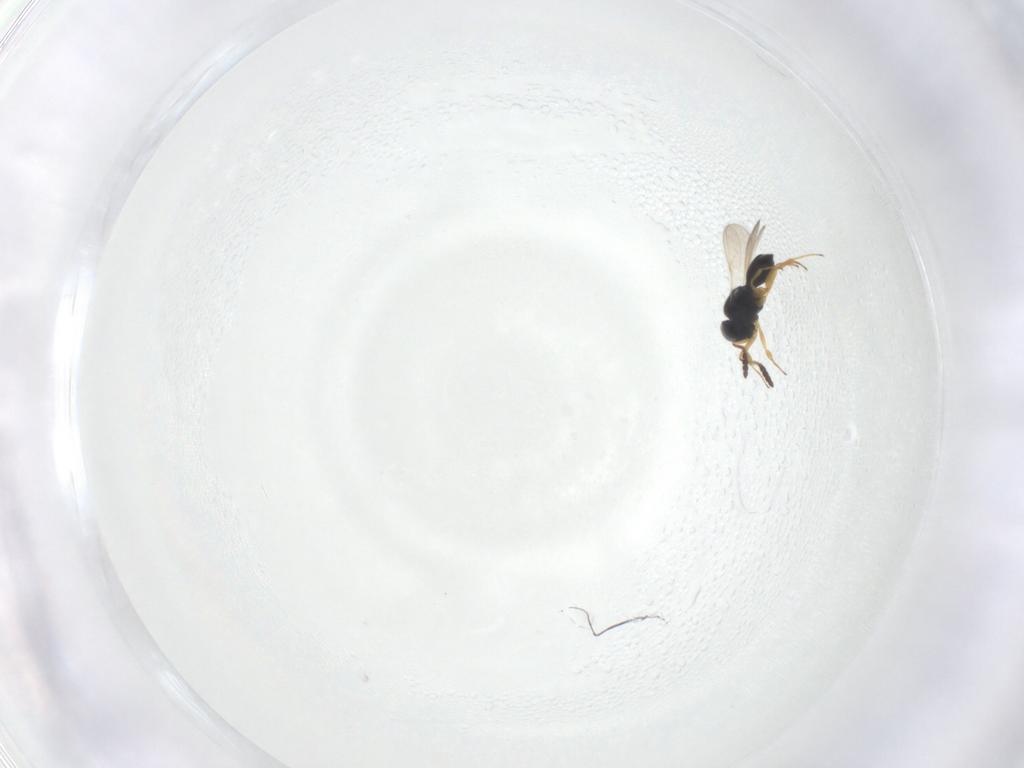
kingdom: Animalia
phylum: Arthropoda
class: Insecta
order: Hymenoptera
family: Scelionidae
